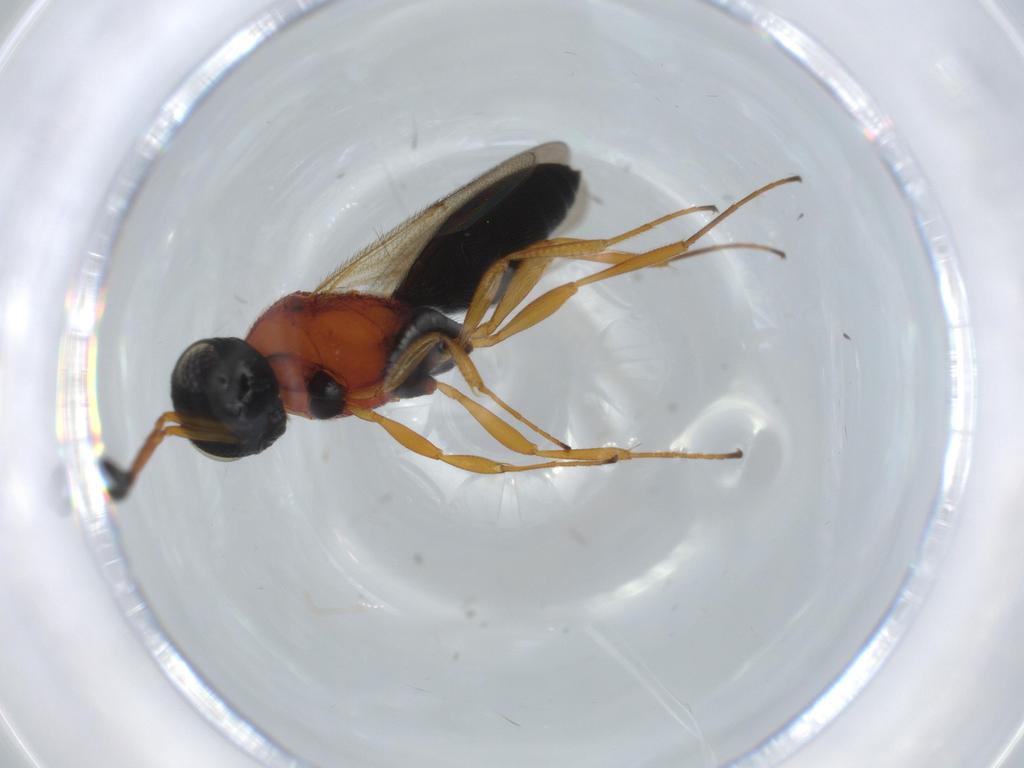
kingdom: Animalia
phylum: Arthropoda
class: Insecta
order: Hymenoptera
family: Scelionidae
